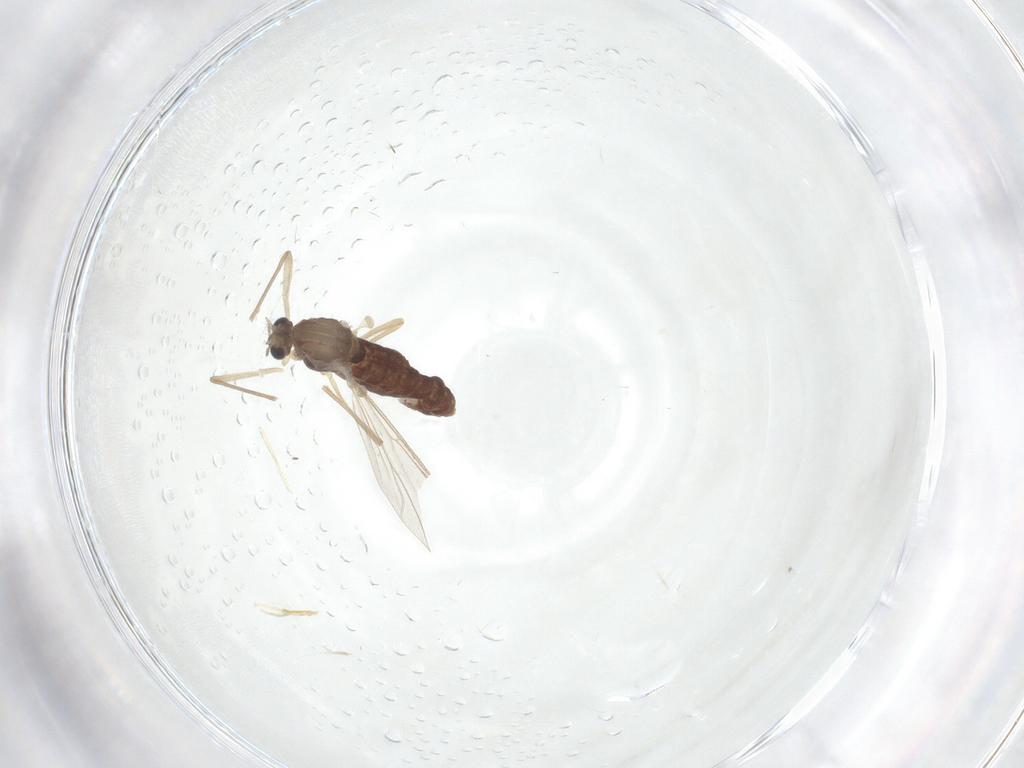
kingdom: Animalia
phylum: Arthropoda
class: Insecta
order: Diptera
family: Chironomidae
